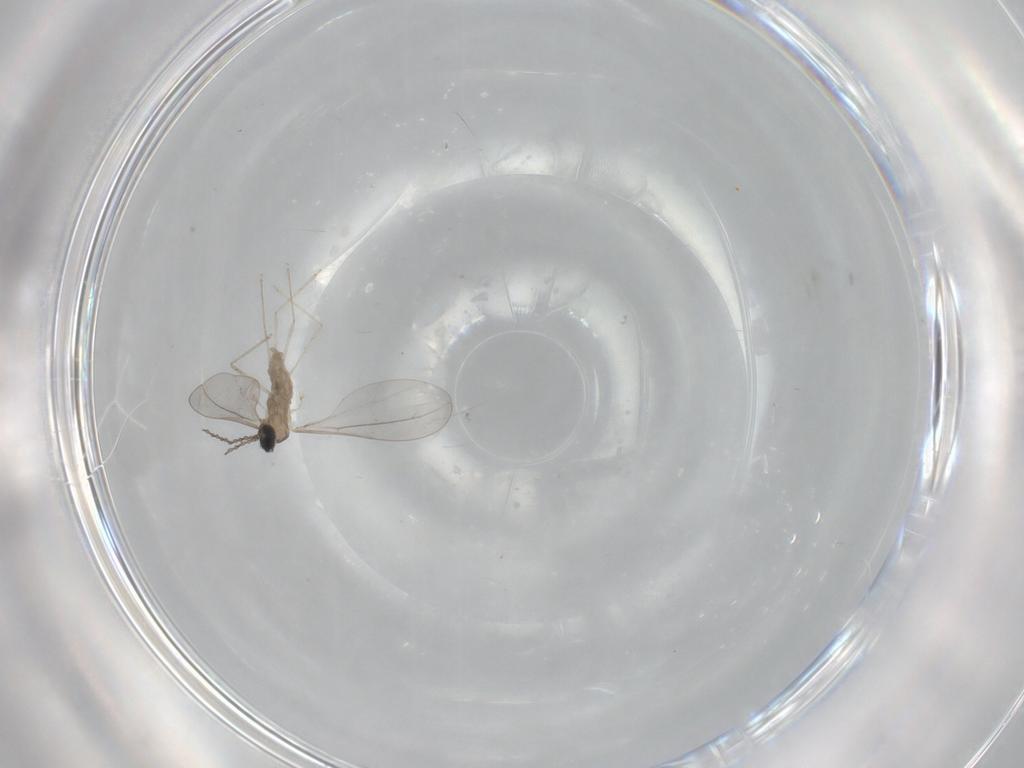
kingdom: Animalia
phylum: Arthropoda
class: Insecta
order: Diptera
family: Cecidomyiidae
